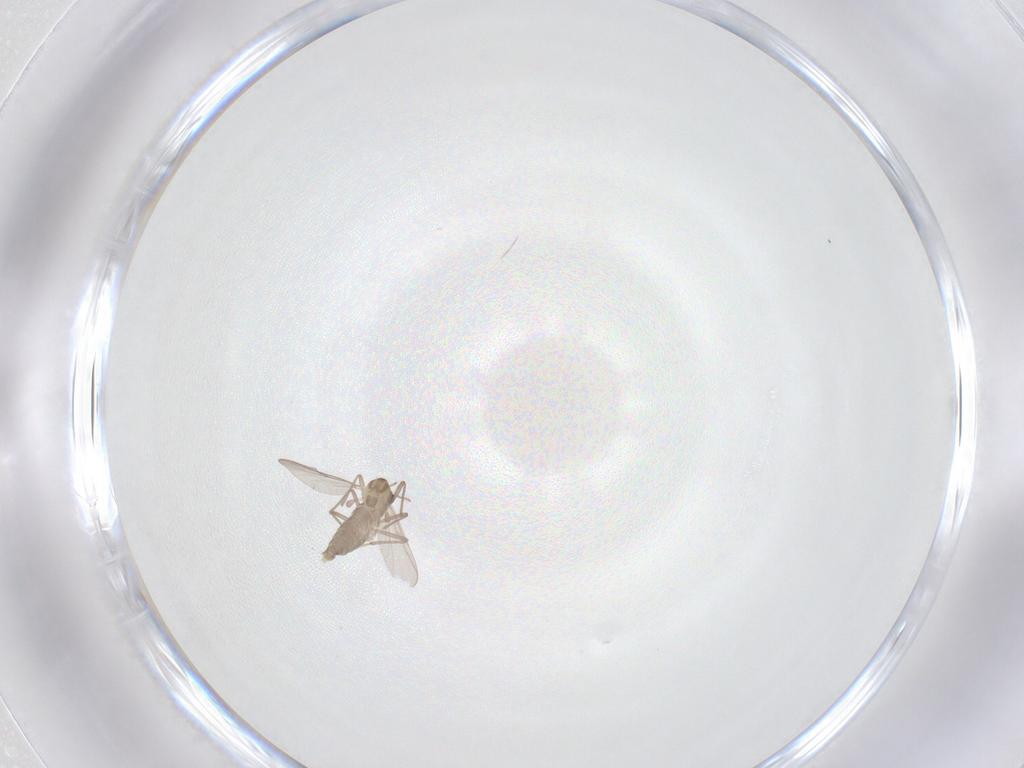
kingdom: Animalia
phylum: Arthropoda
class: Insecta
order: Diptera
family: Chironomidae
